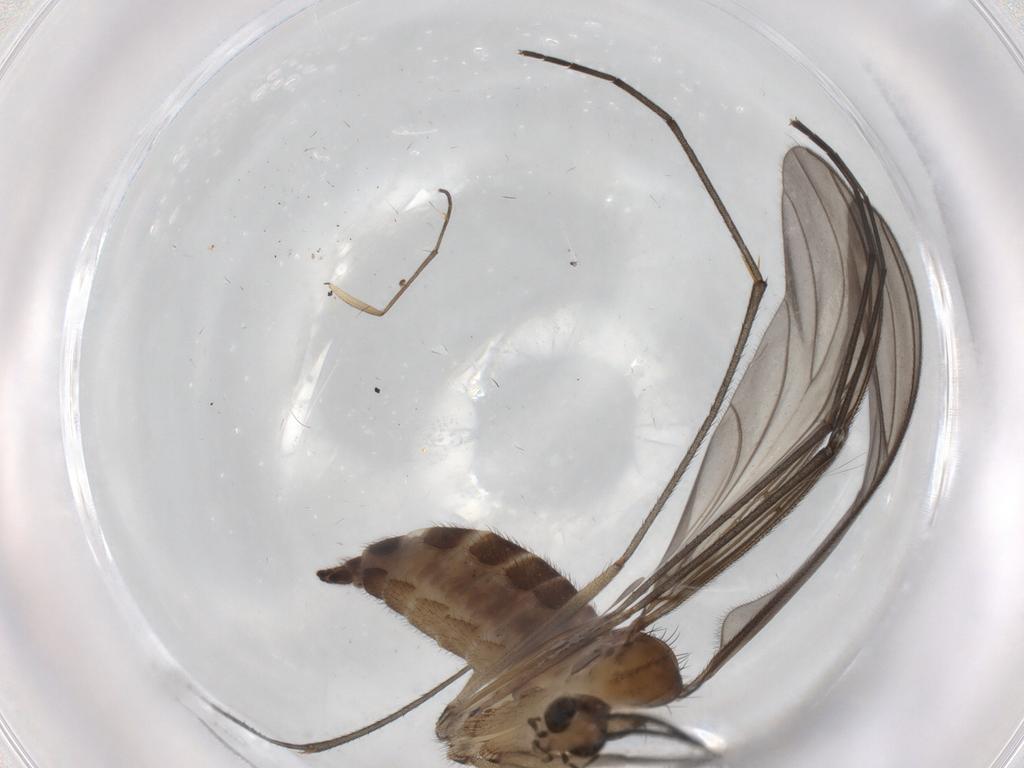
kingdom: Animalia
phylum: Arthropoda
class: Insecta
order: Diptera
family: Sciaridae
